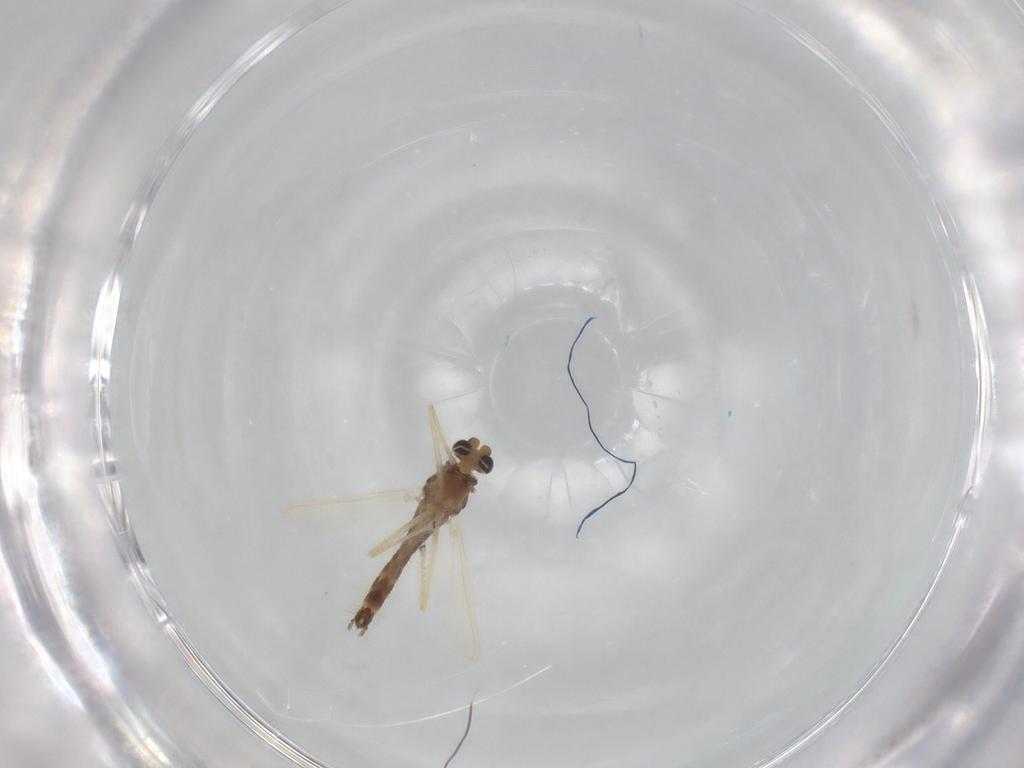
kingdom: Animalia
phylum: Arthropoda
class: Insecta
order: Diptera
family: Chironomidae
